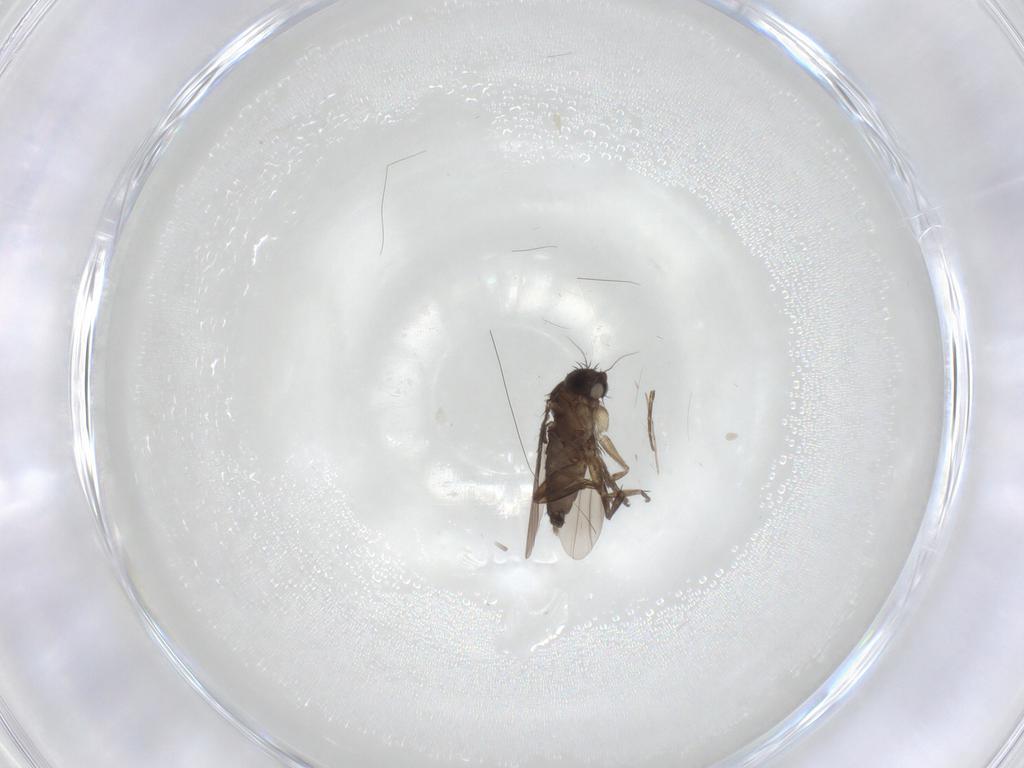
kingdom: Animalia
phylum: Arthropoda
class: Insecta
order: Diptera
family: Phoridae
